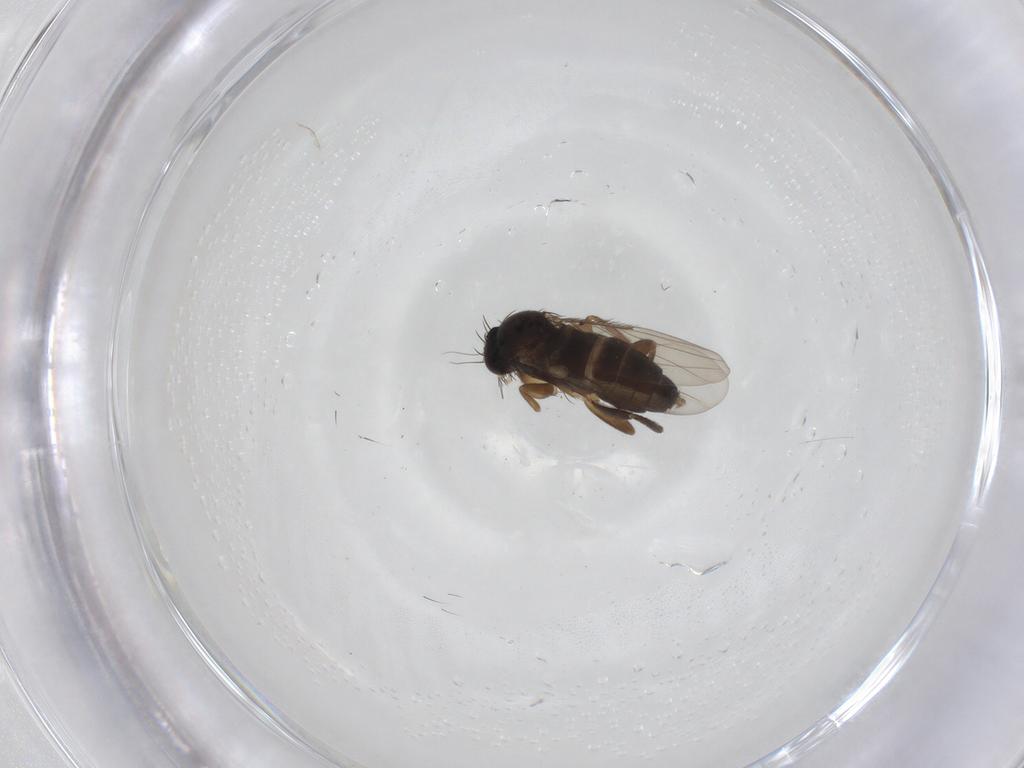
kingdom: Animalia
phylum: Arthropoda
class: Insecta
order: Diptera
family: Phoridae
